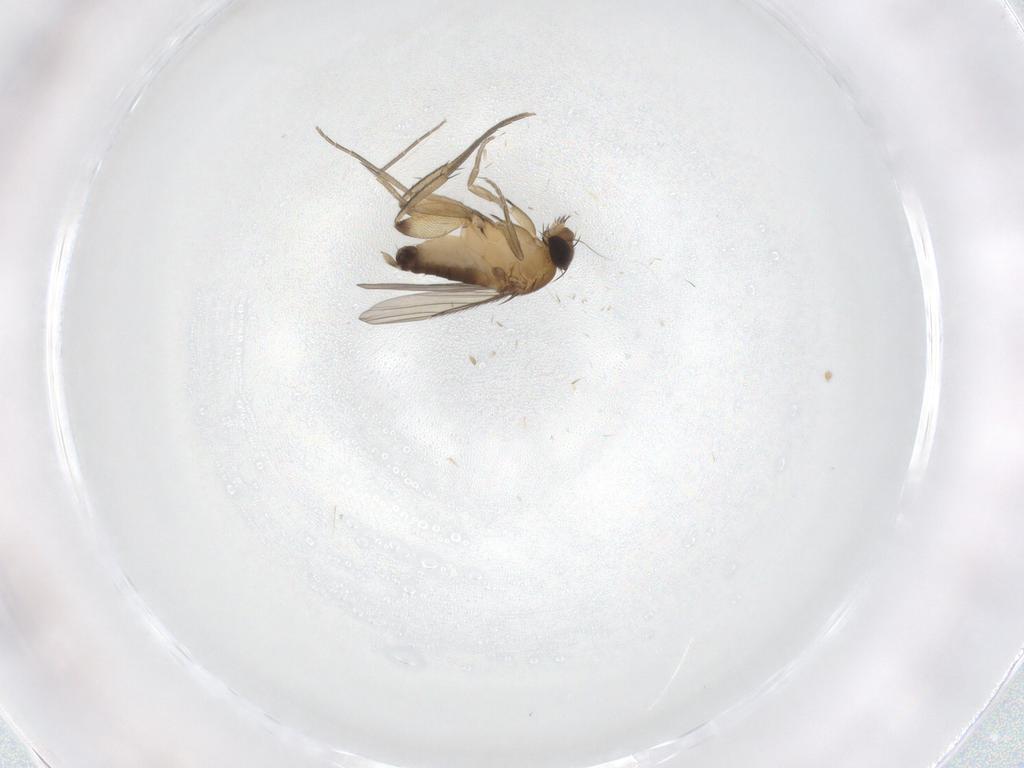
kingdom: Animalia
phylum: Arthropoda
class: Insecta
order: Diptera
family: Phoridae
